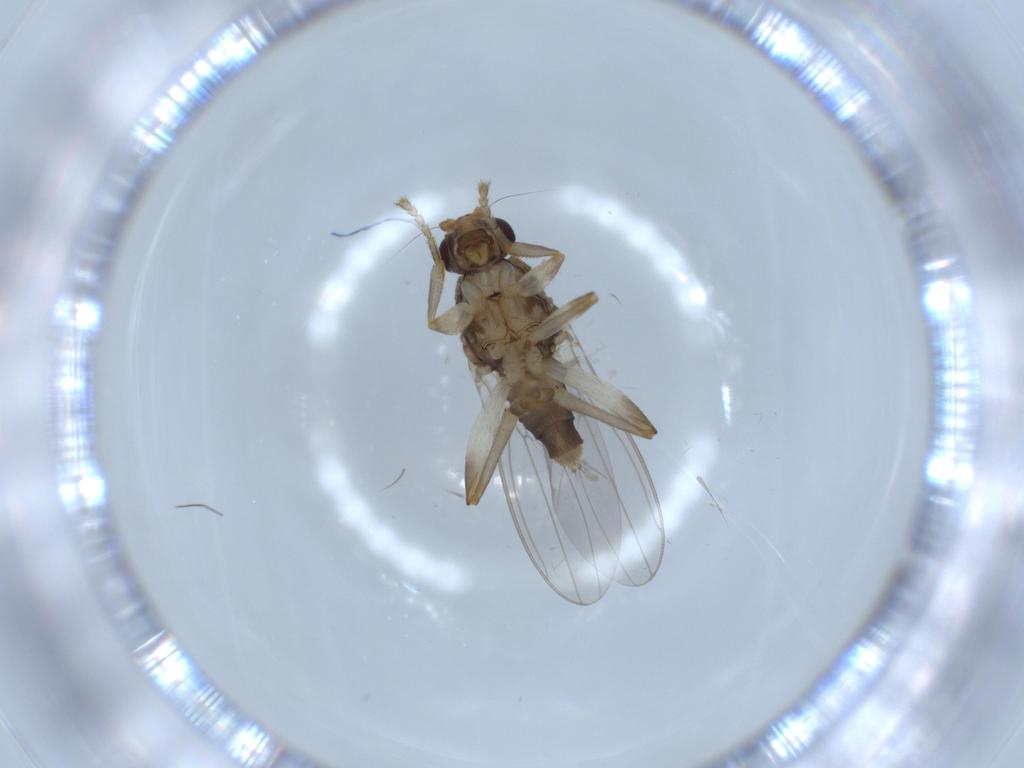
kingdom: Animalia
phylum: Arthropoda
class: Insecta
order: Diptera
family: Sphaeroceridae
